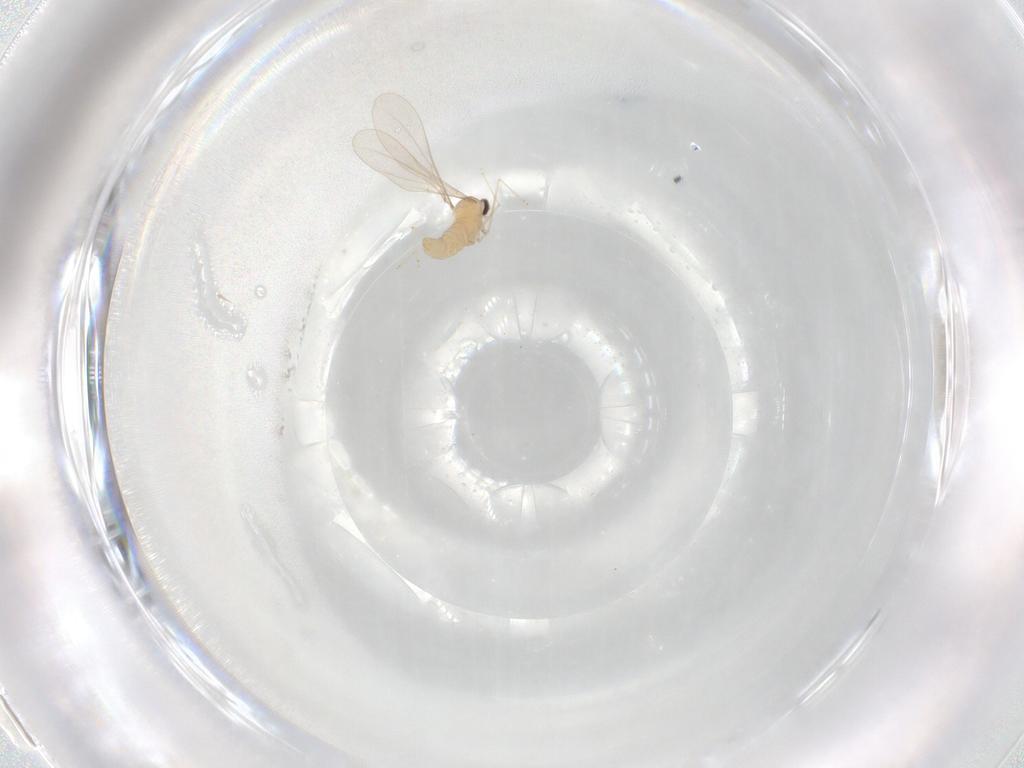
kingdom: Animalia
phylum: Arthropoda
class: Insecta
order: Diptera
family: Cecidomyiidae
